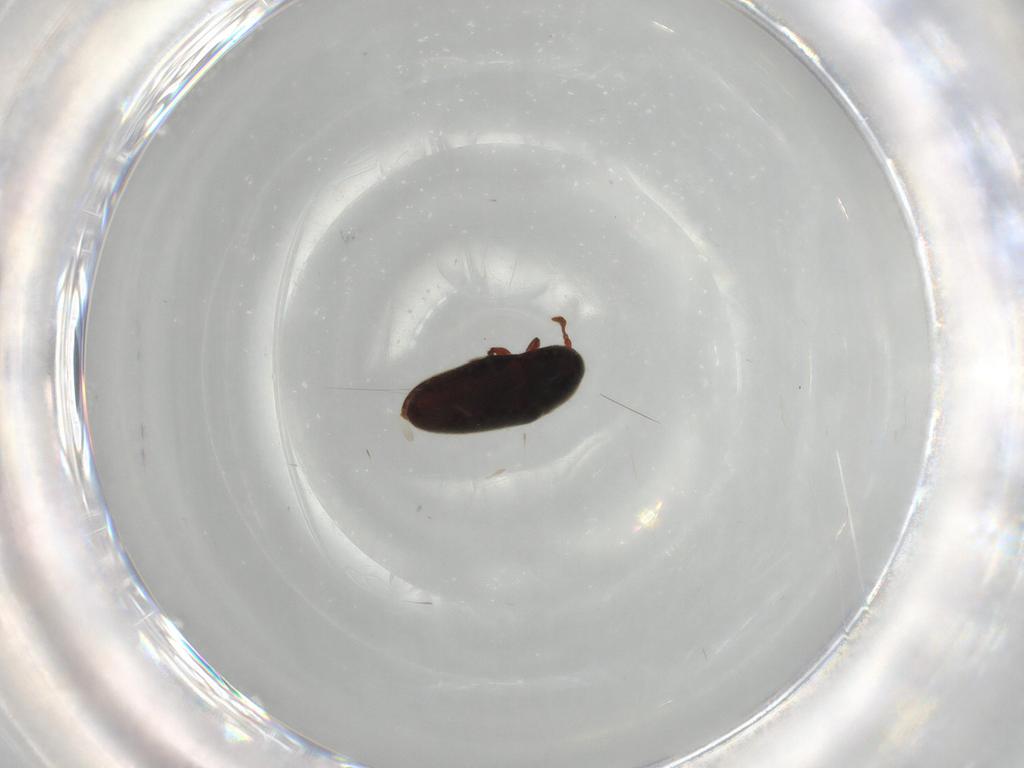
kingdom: Animalia
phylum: Arthropoda
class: Insecta
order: Coleoptera
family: Throscidae
